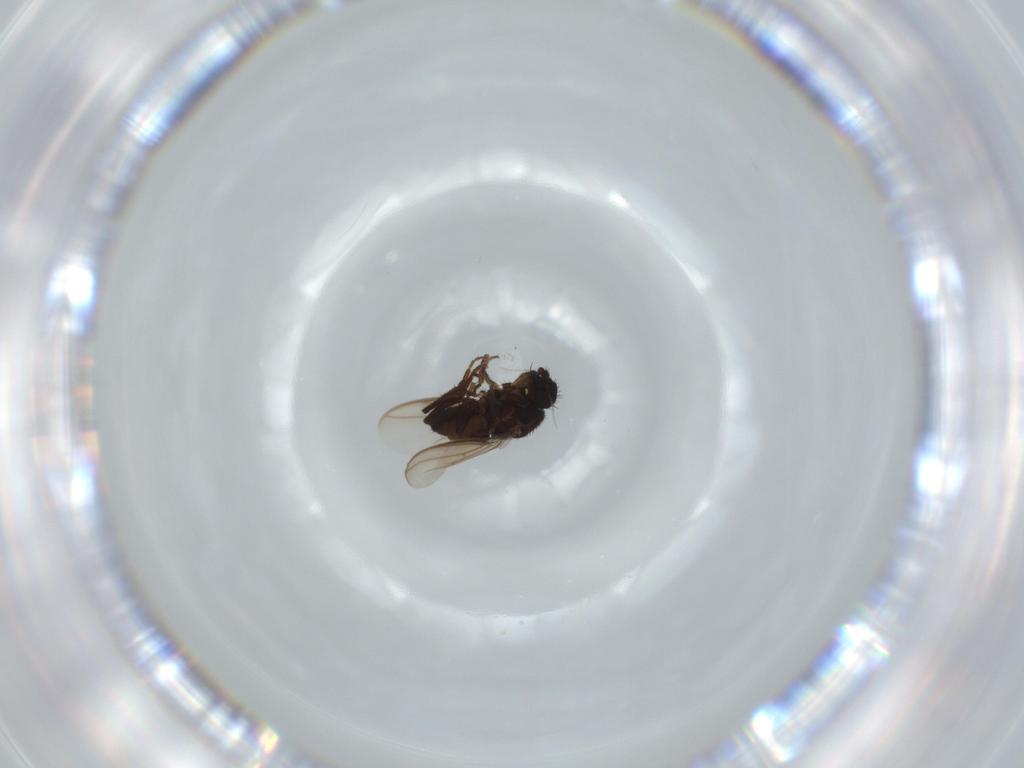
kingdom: Animalia
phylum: Arthropoda
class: Insecta
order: Diptera
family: Sphaeroceridae
